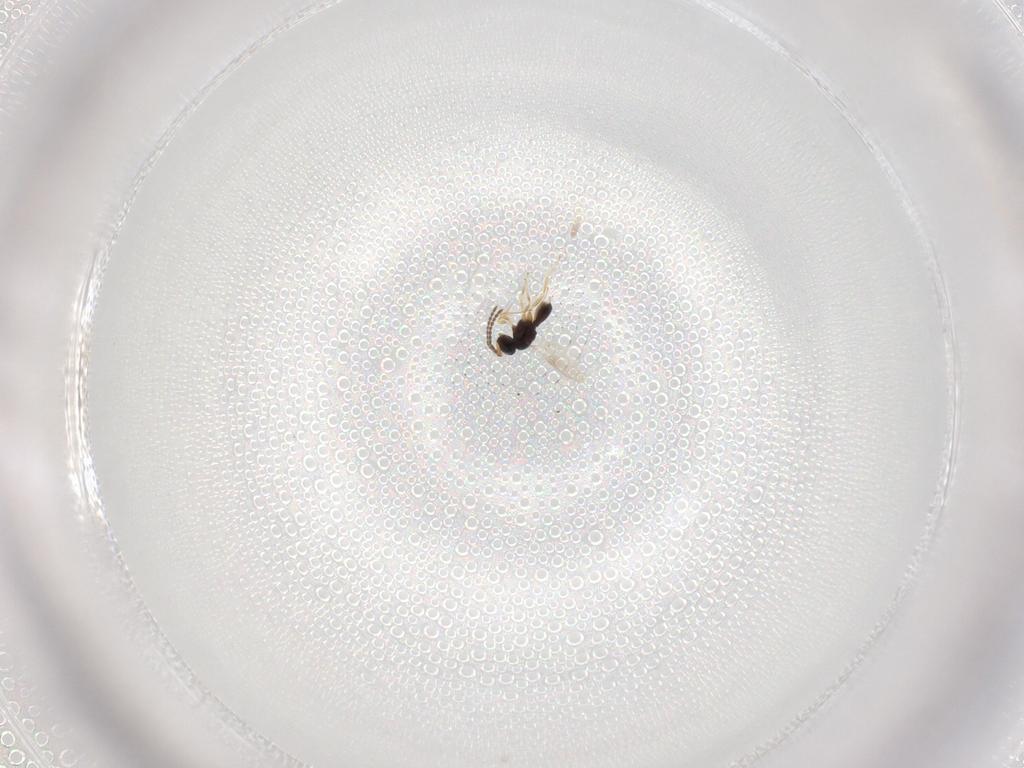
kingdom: Animalia
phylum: Arthropoda
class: Insecta
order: Hymenoptera
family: Scelionidae
